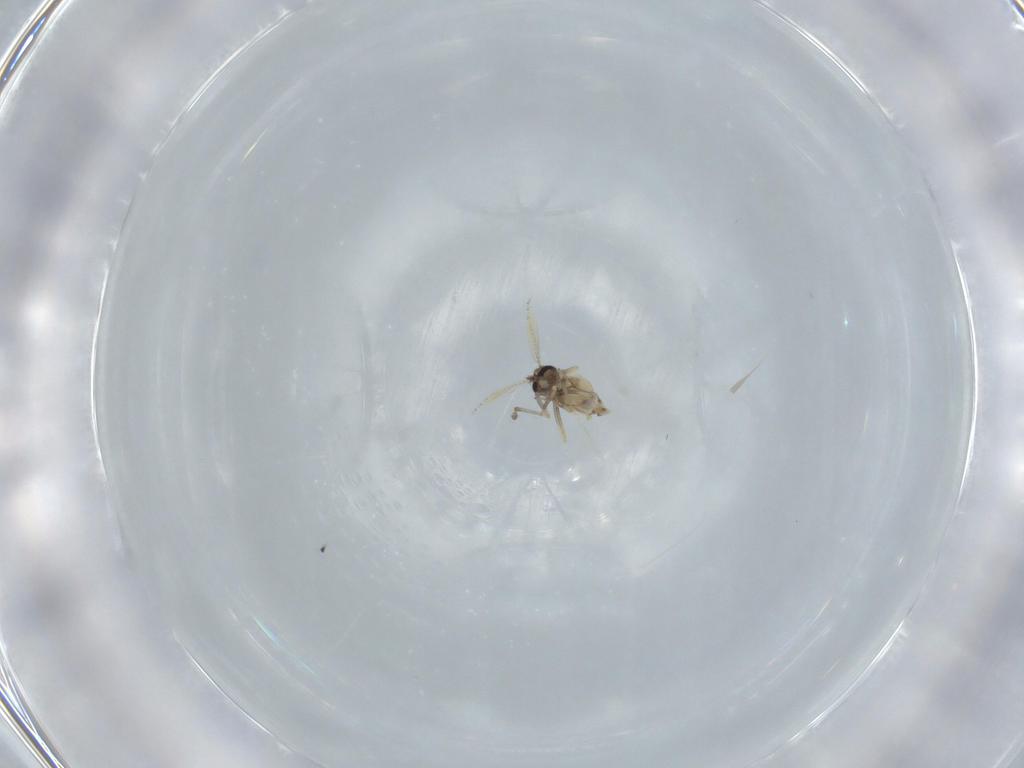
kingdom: Animalia
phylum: Arthropoda
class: Insecta
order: Diptera
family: Ceratopogonidae
